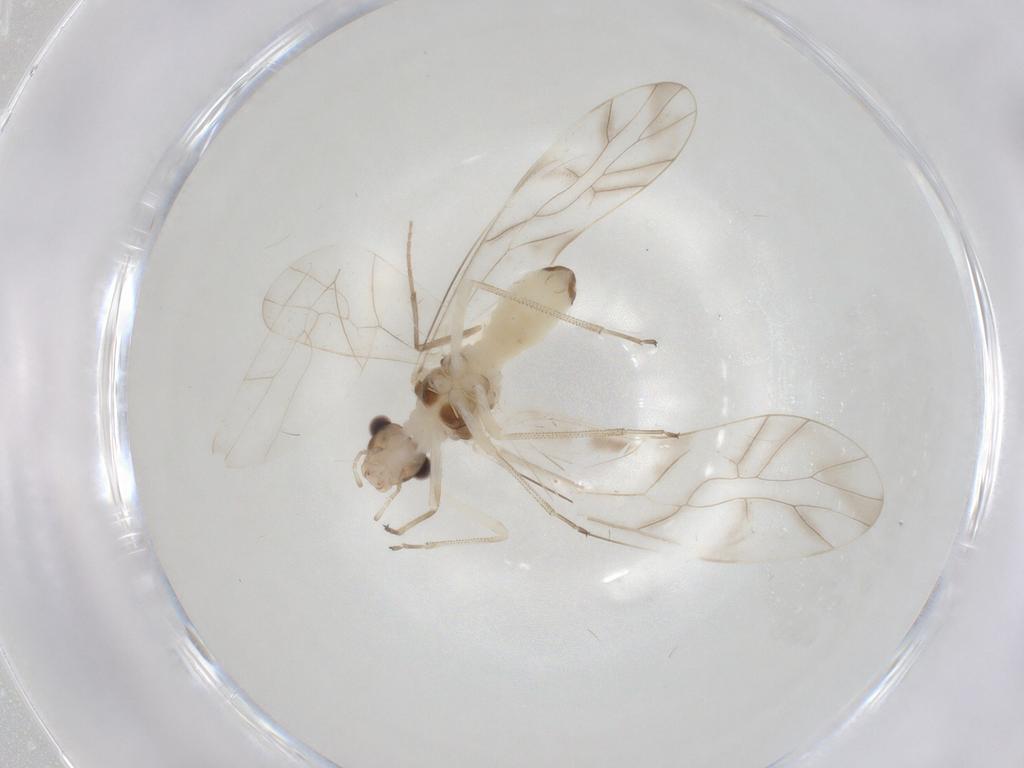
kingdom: Animalia
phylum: Arthropoda
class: Insecta
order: Psocodea
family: Stenopsocidae
